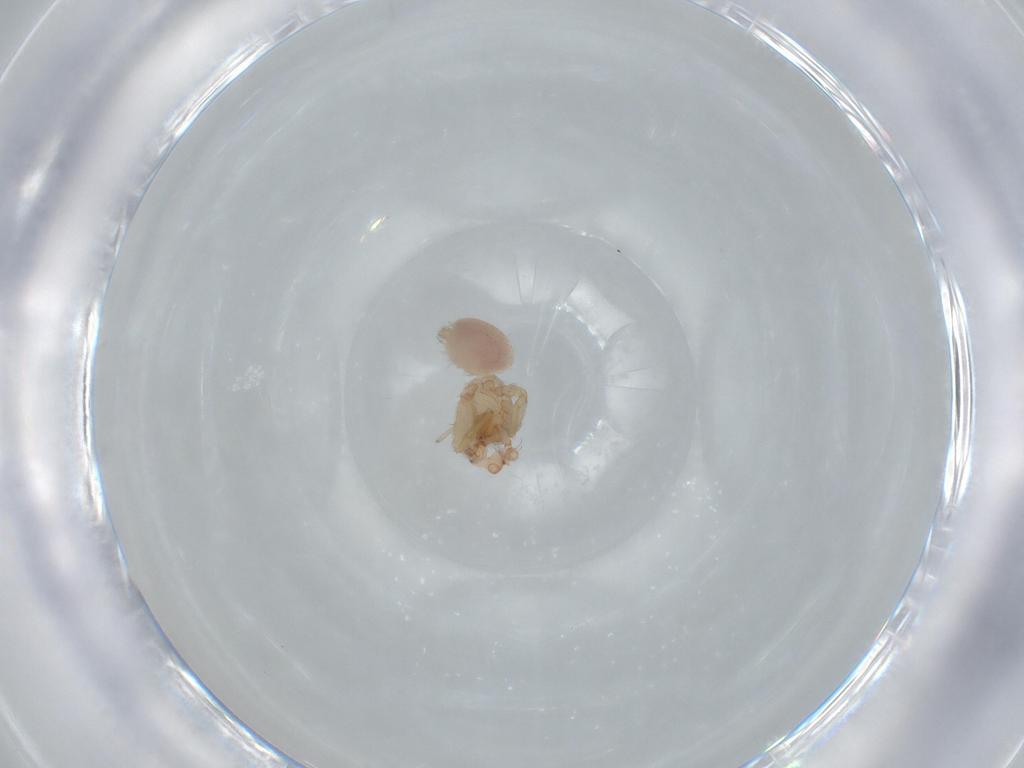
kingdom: Animalia
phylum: Arthropoda
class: Arachnida
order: Araneae
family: Oonopidae
